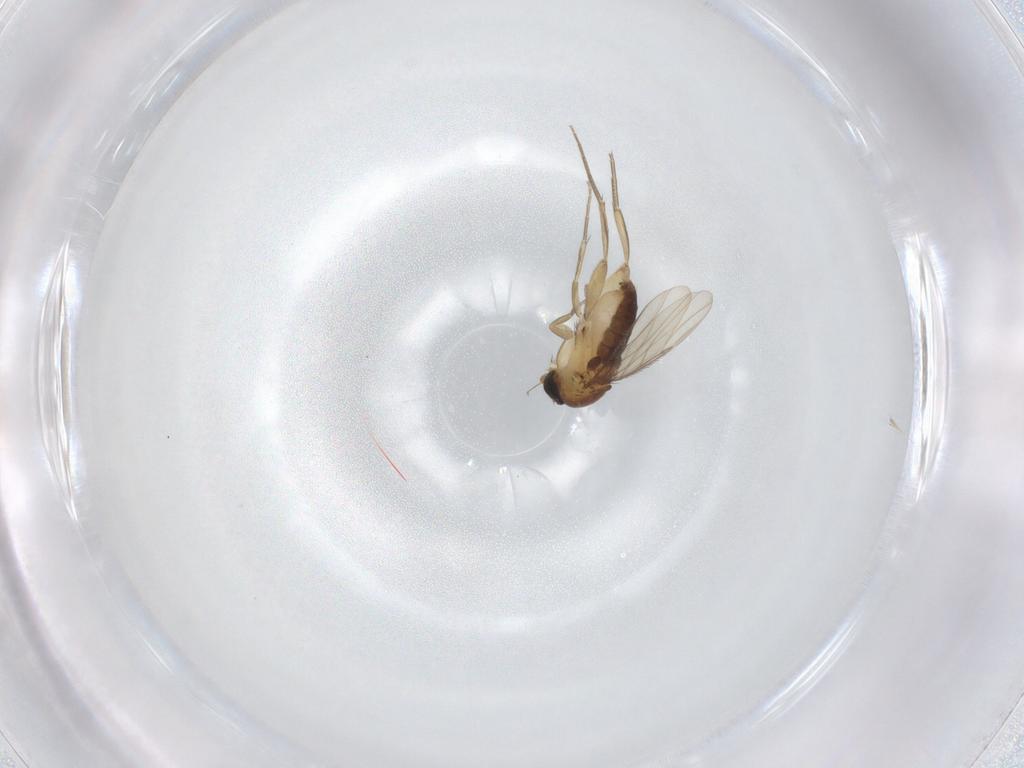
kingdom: Animalia
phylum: Arthropoda
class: Insecta
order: Diptera
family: Phoridae
